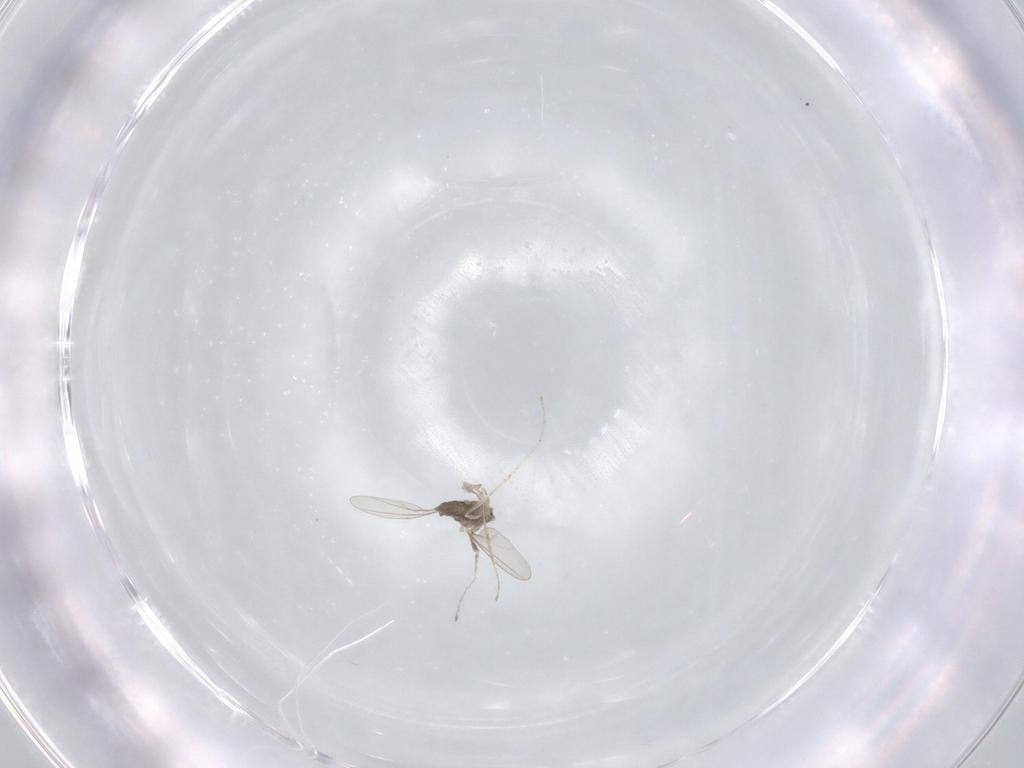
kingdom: Animalia
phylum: Arthropoda
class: Insecta
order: Diptera
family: Cecidomyiidae
